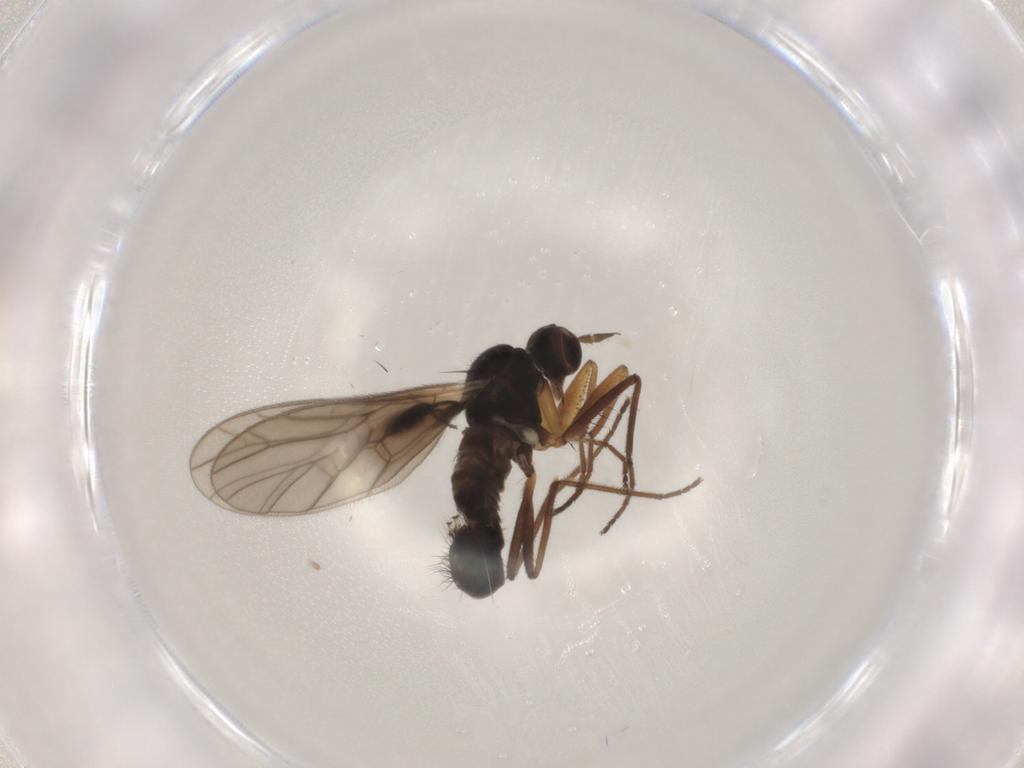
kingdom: Animalia
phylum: Arthropoda
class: Insecta
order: Diptera
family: Empididae
